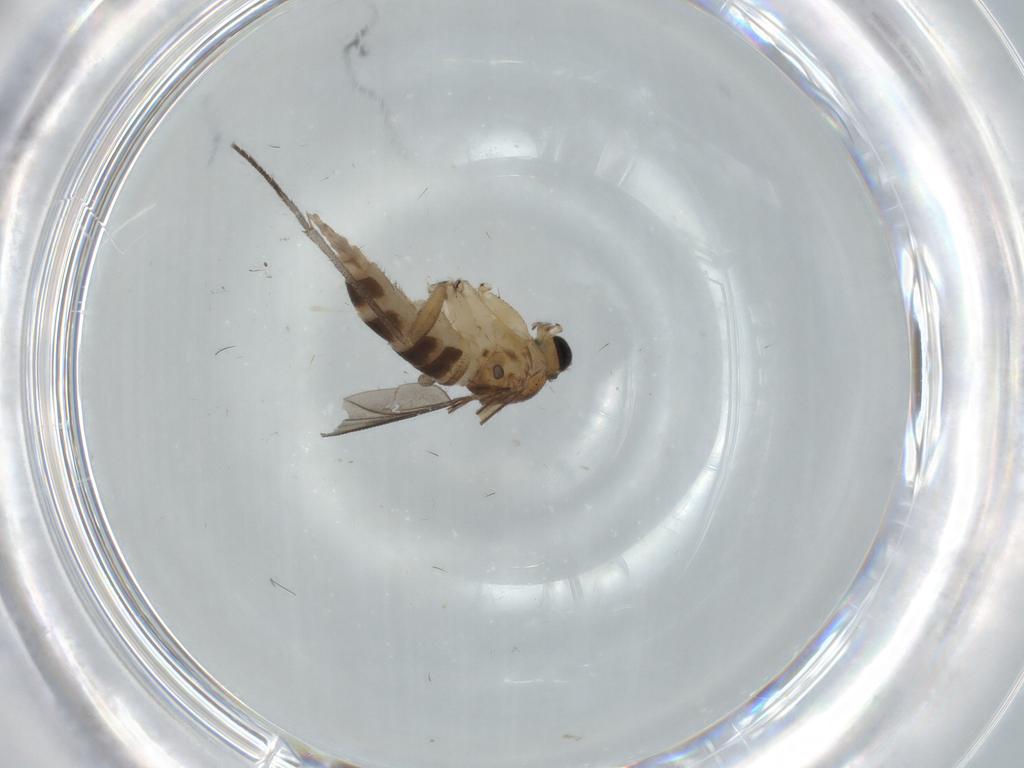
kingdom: Animalia
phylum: Arthropoda
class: Insecta
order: Diptera
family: Sciaridae
